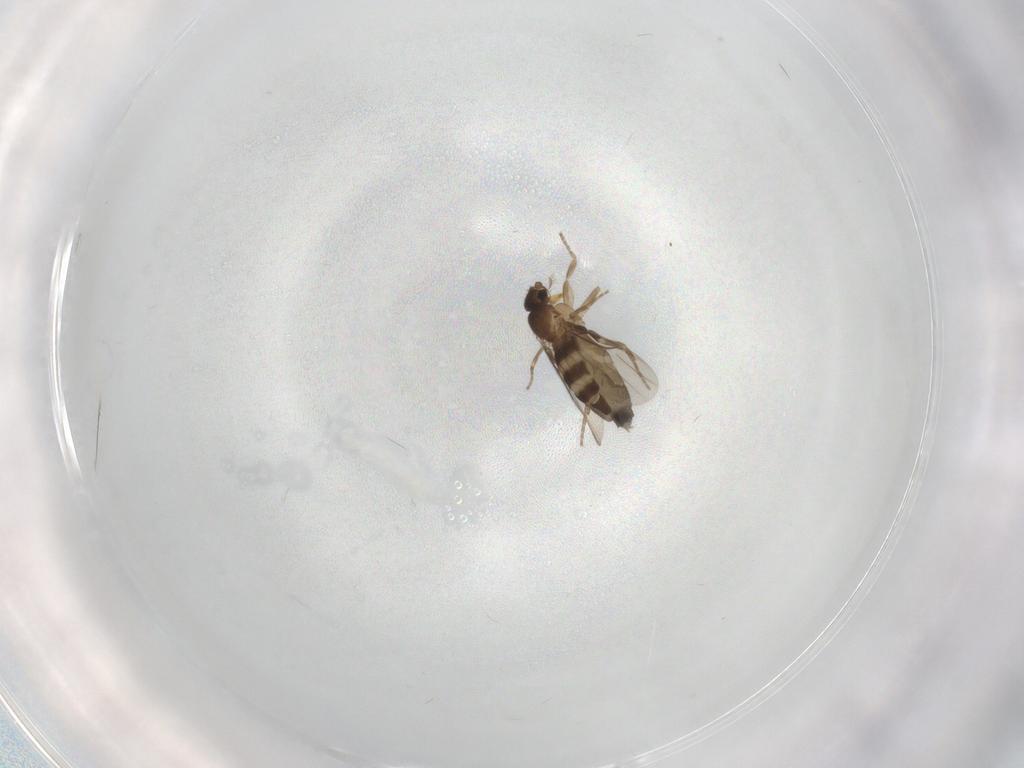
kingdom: Animalia
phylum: Arthropoda
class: Insecta
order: Diptera
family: Phoridae
